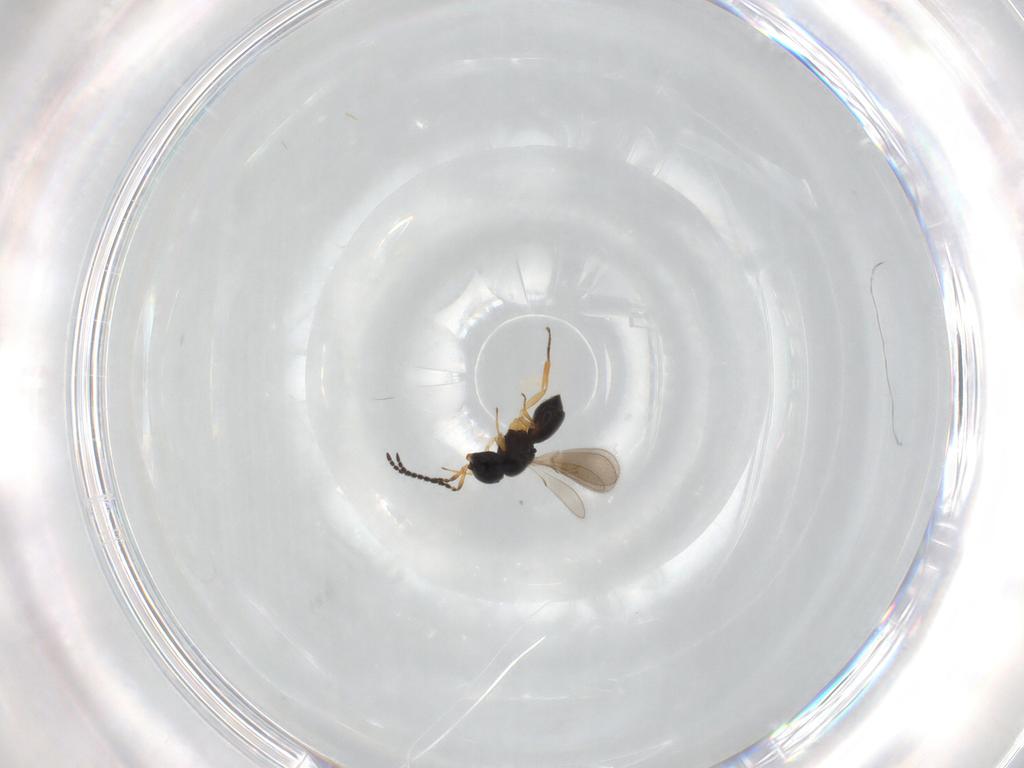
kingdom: Animalia
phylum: Arthropoda
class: Insecta
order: Hymenoptera
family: Scelionidae
